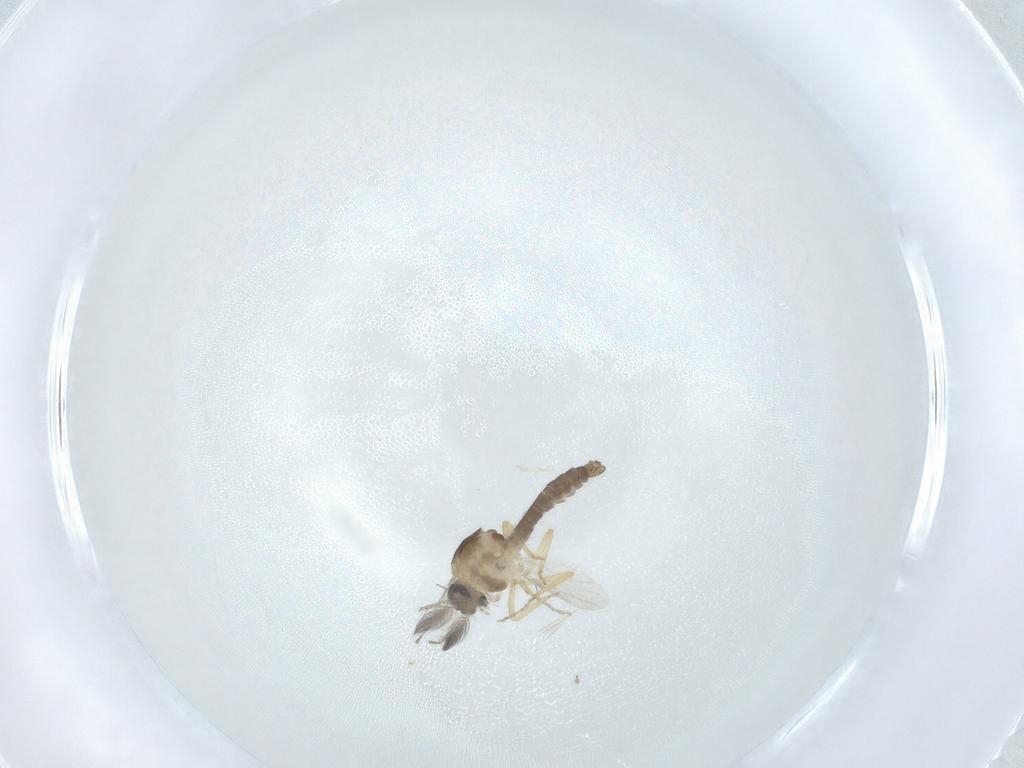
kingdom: Animalia
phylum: Arthropoda
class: Insecta
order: Diptera
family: Ceratopogonidae
